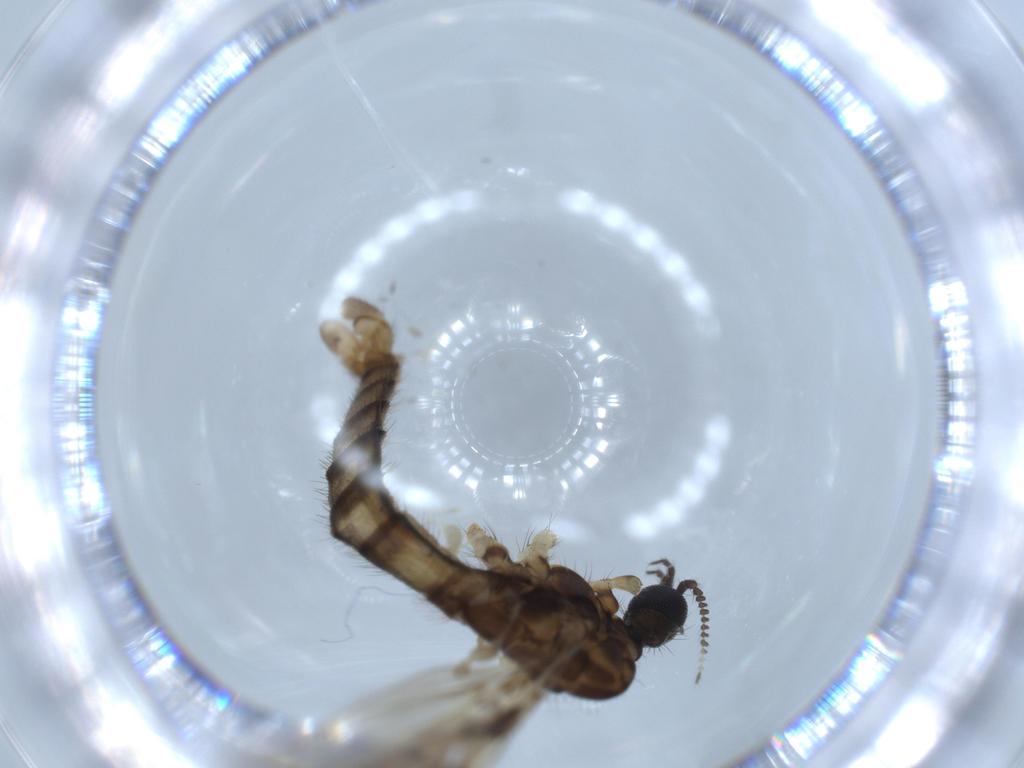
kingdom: Animalia
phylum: Arthropoda
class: Insecta
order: Diptera
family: Cecidomyiidae
